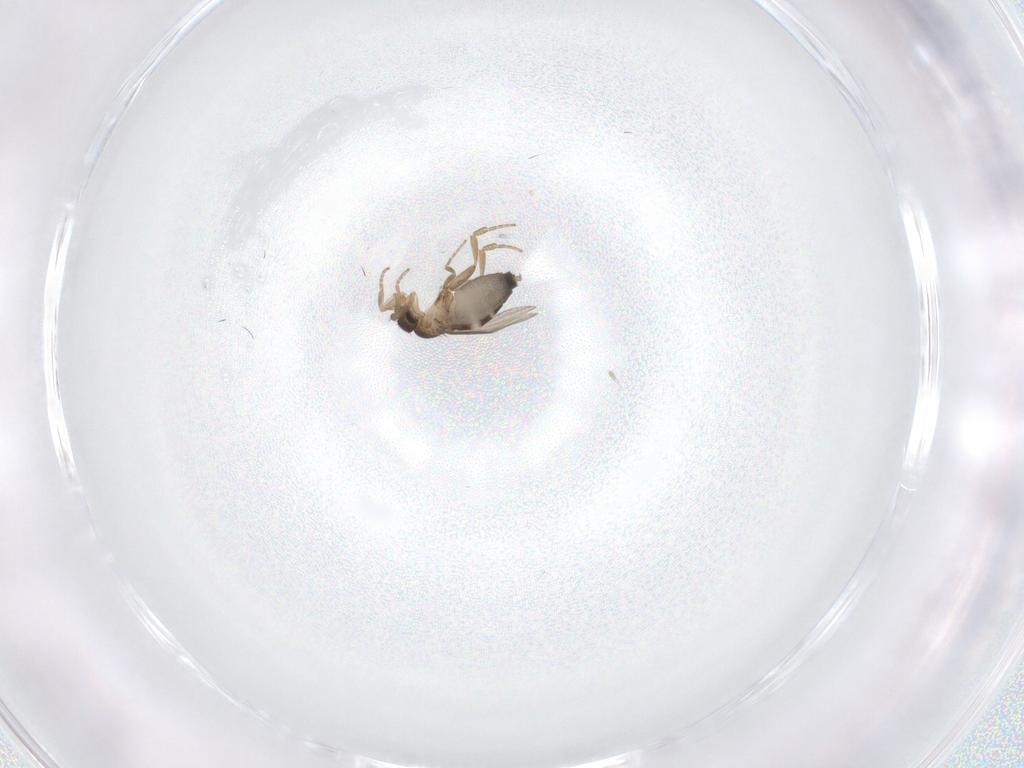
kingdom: Animalia
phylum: Arthropoda
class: Insecta
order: Diptera
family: Phoridae
